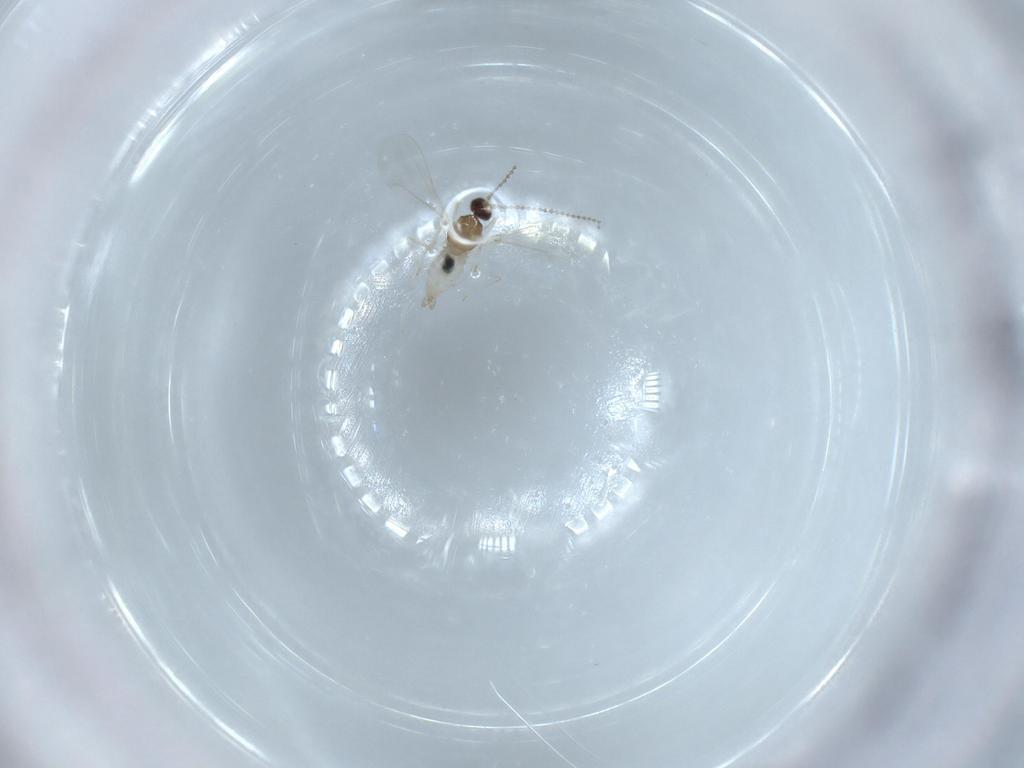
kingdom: Animalia
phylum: Arthropoda
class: Insecta
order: Diptera
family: Cecidomyiidae
